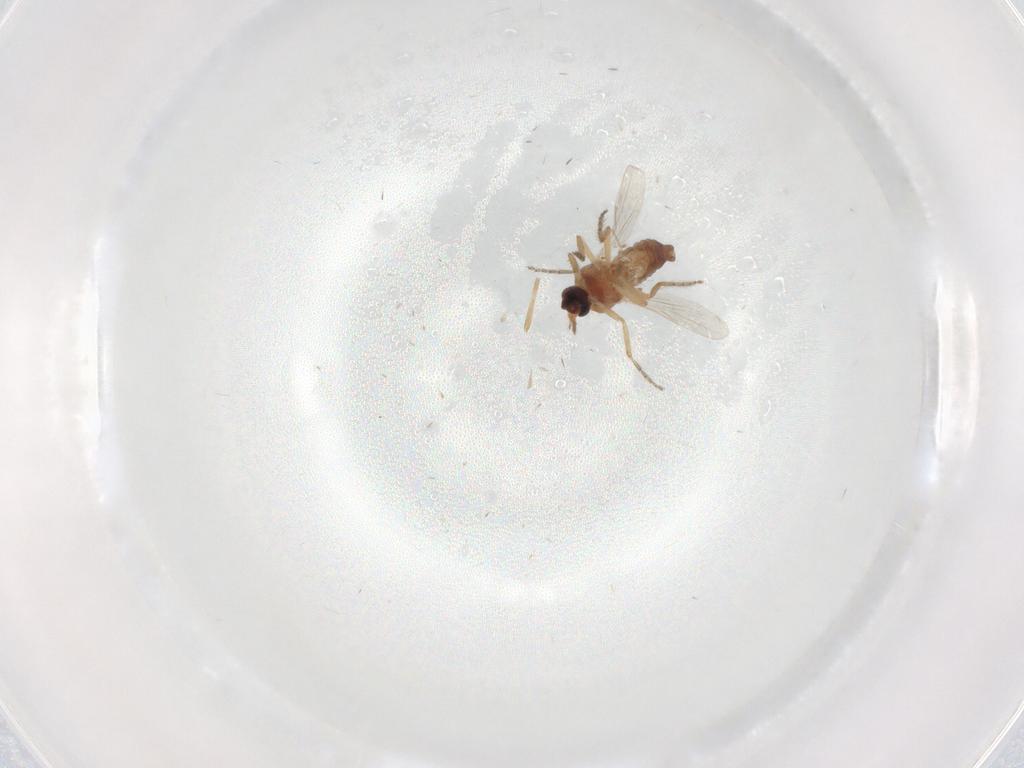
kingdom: Animalia
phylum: Arthropoda
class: Insecta
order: Diptera
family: Ceratopogonidae
